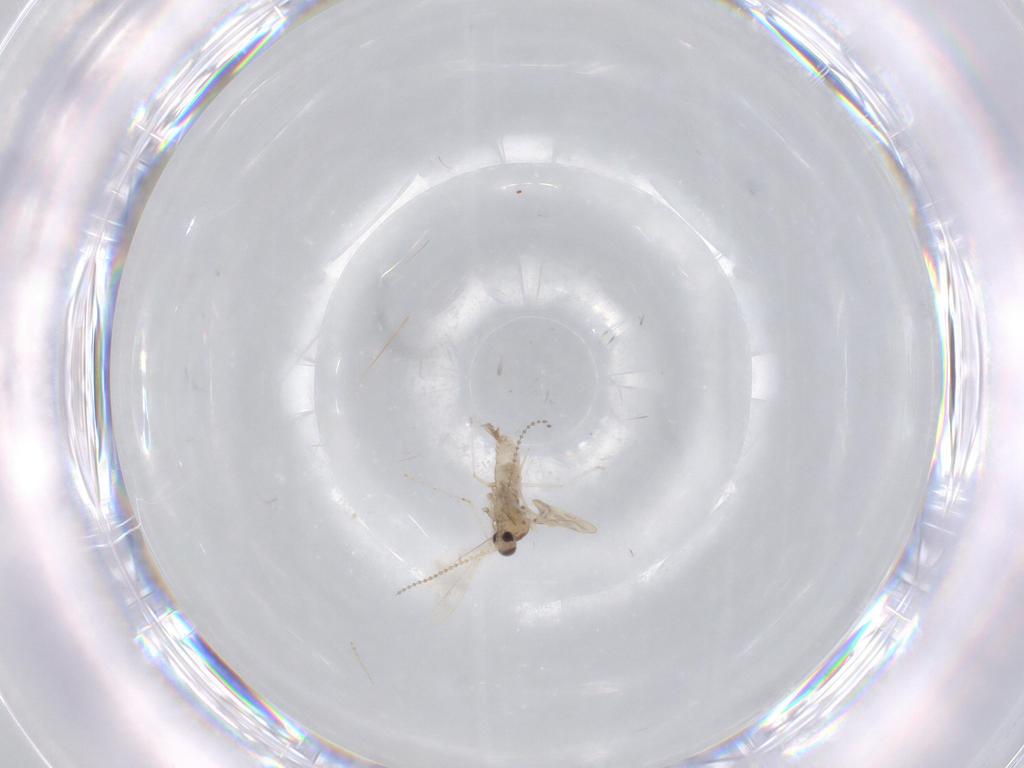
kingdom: Animalia
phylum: Arthropoda
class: Insecta
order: Diptera
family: Cecidomyiidae
